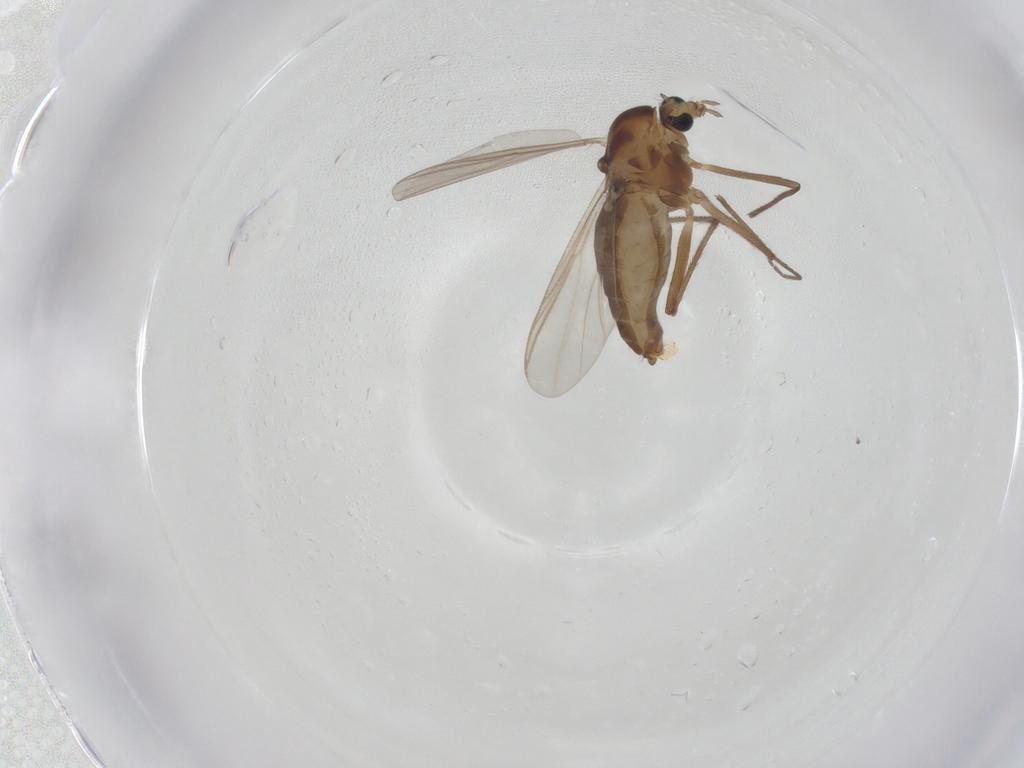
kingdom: Animalia
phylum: Arthropoda
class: Insecta
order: Diptera
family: Chironomidae
